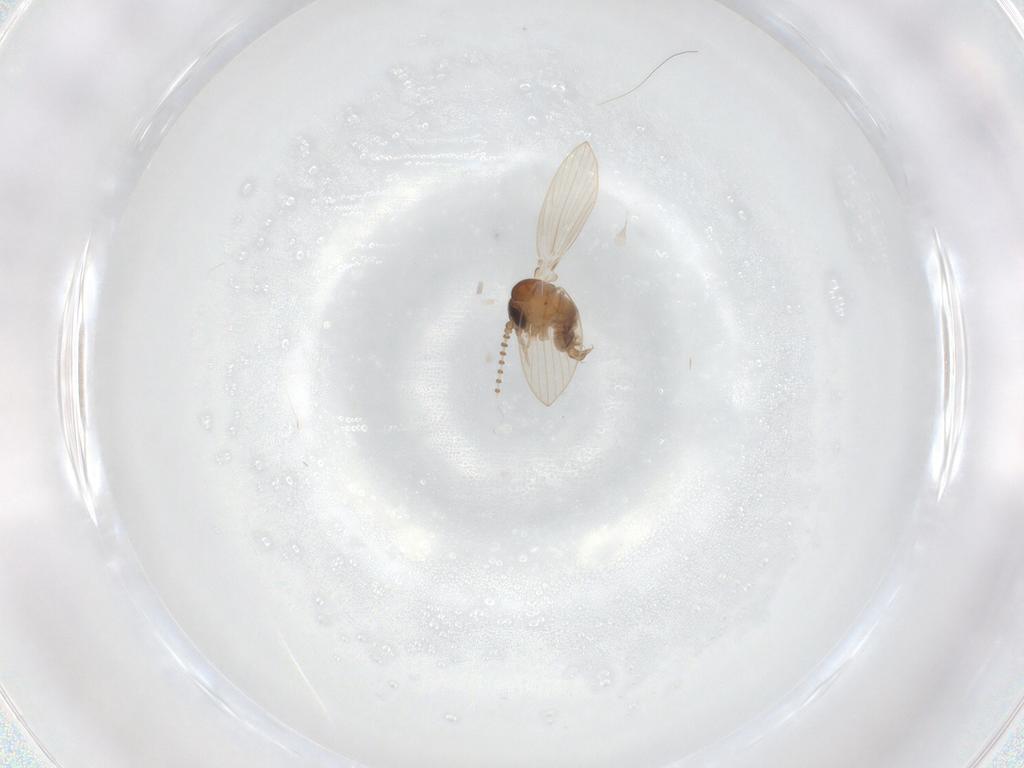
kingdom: Animalia
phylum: Arthropoda
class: Insecta
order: Diptera
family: Psychodidae
